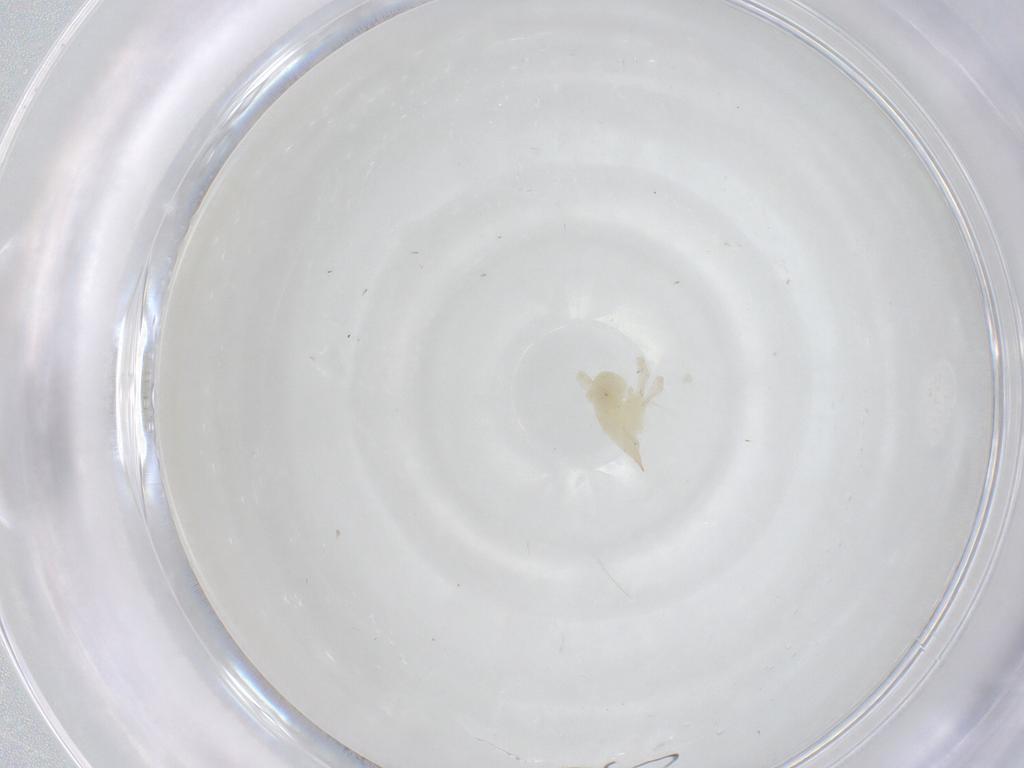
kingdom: Animalia
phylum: Arthropoda
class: Arachnida
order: Trombidiformes
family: Bdellidae
